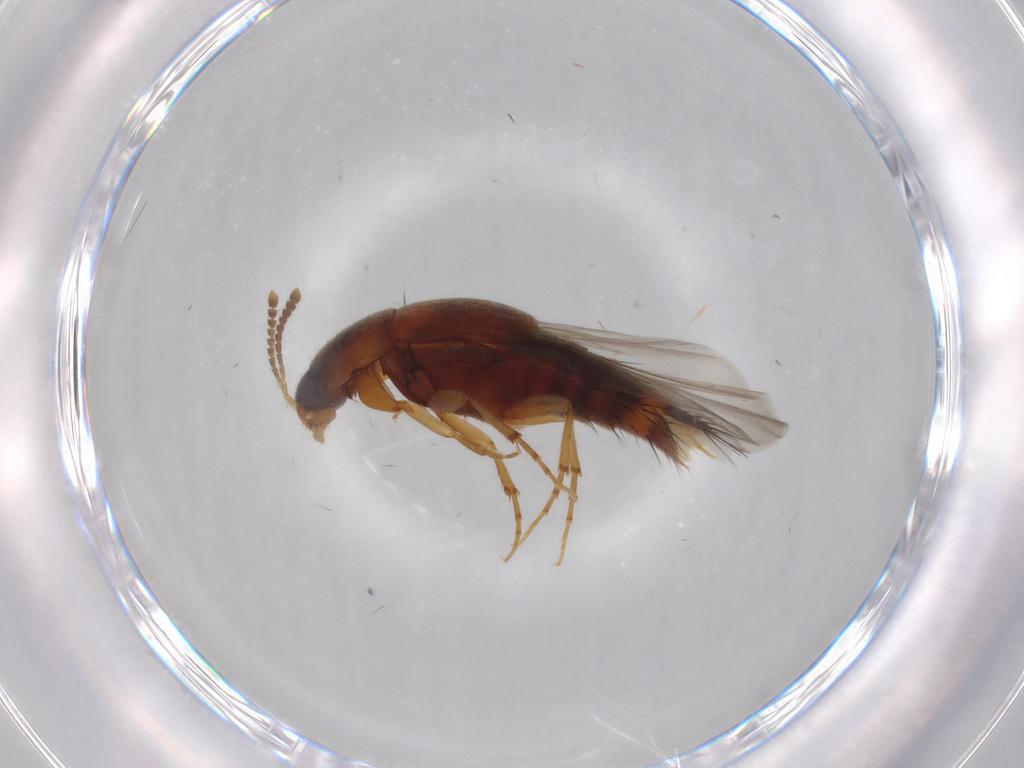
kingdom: Animalia
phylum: Arthropoda
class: Insecta
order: Coleoptera
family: Staphylinidae
